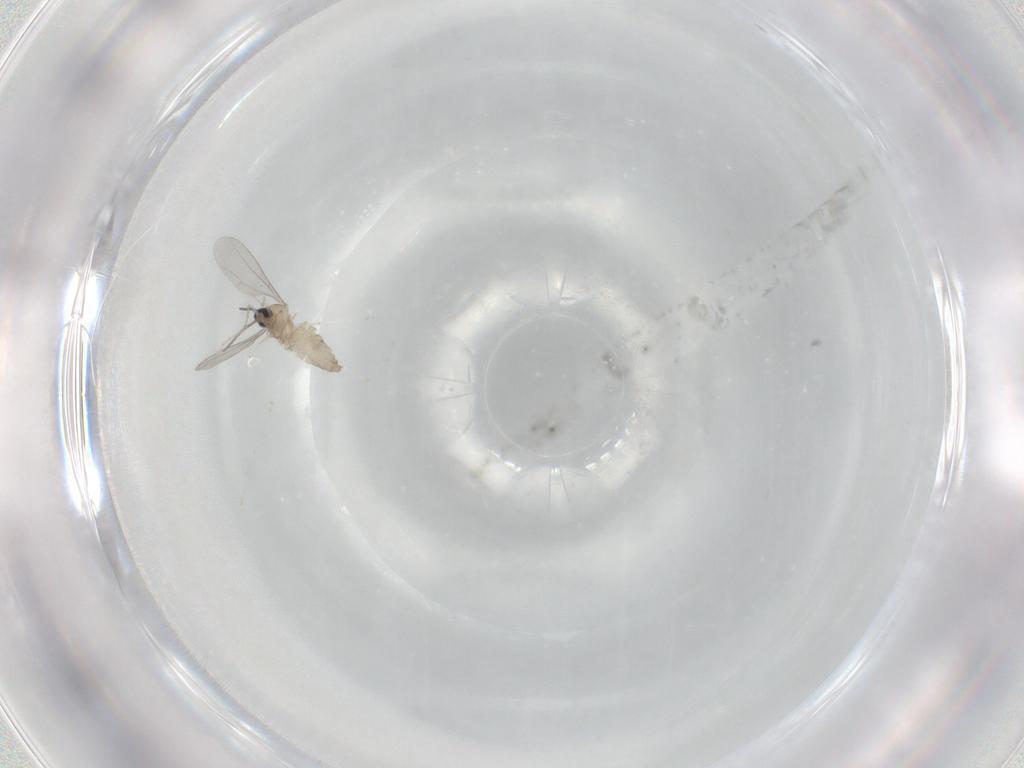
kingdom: Animalia
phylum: Arthropoda
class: Insecta
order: Diptera
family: Cecidomyiidae
